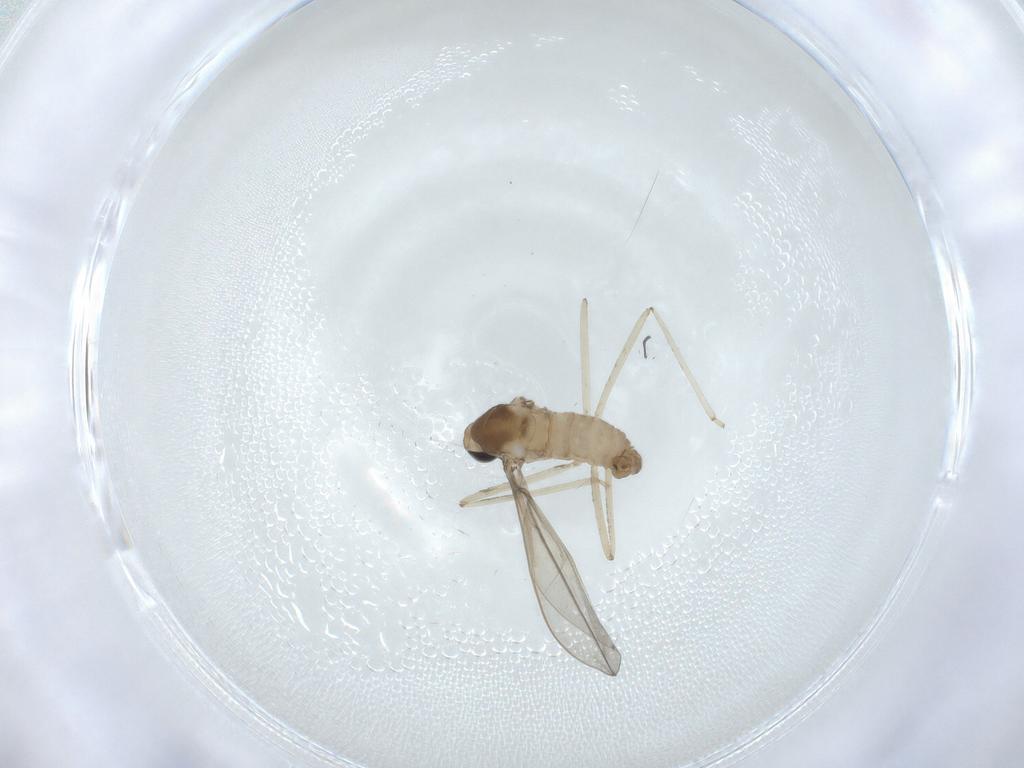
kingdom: Animalia
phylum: Arthropoda
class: Insecta
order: Diptera
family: Cecidomyiidae
